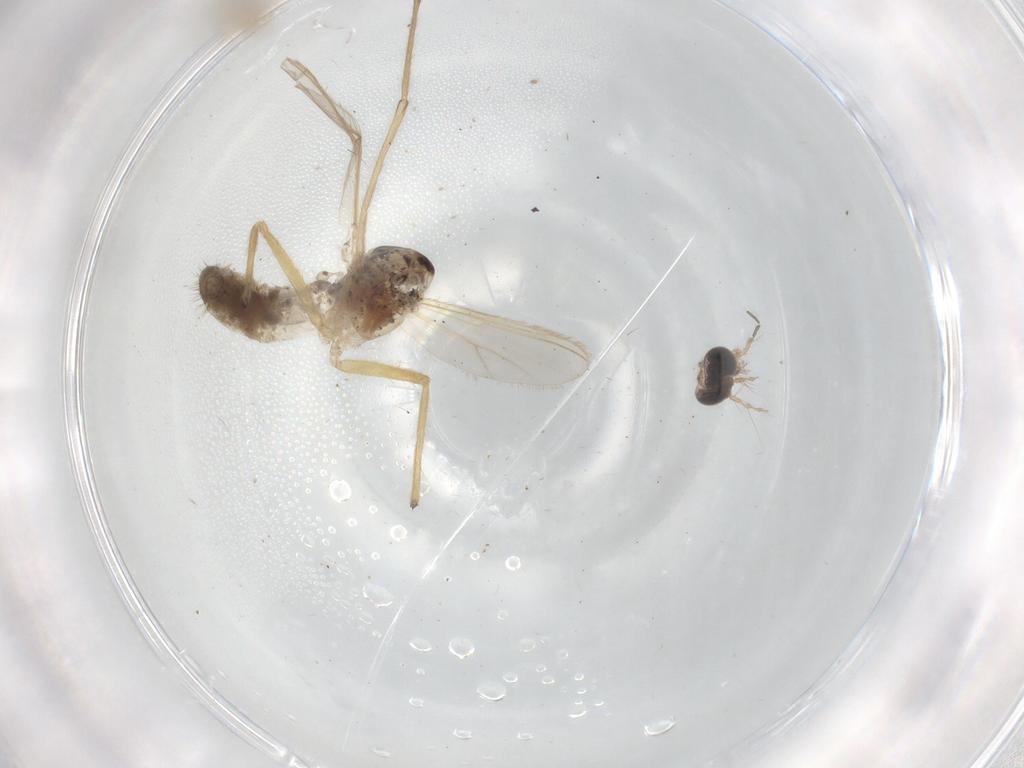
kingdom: Animalia
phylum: Arthropoda
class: Insecta
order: Diptera
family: Chironomidae
